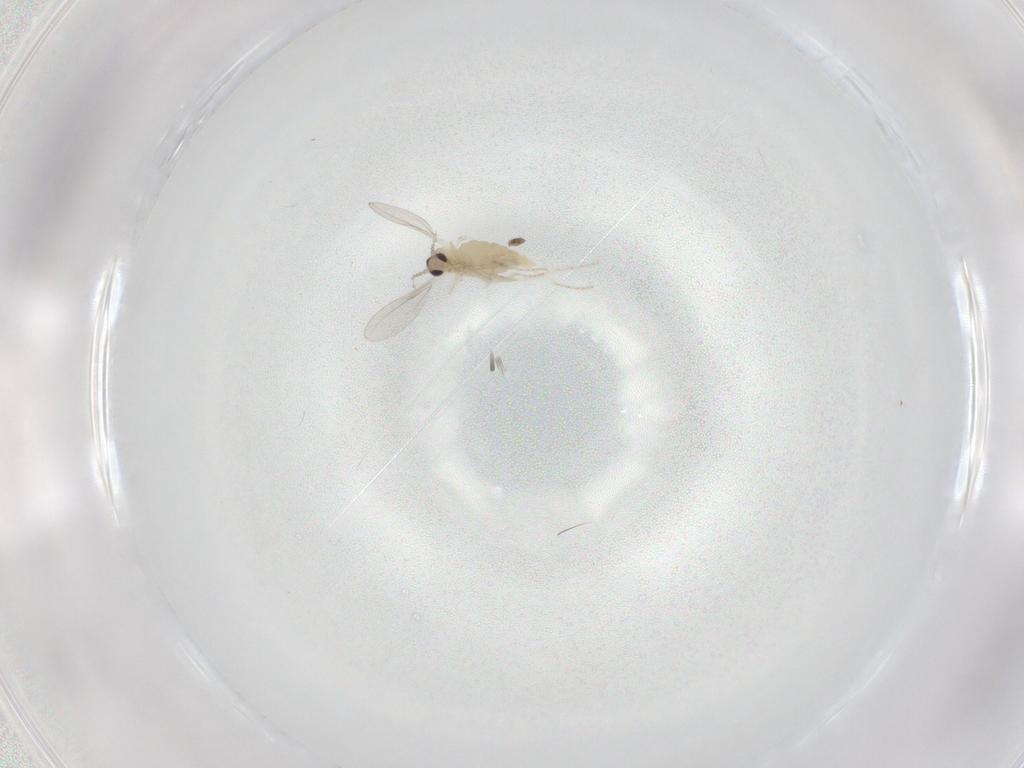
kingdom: Animalia
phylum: Arthropoda
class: Insecta
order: Diptera
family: Cecidomyiidae
